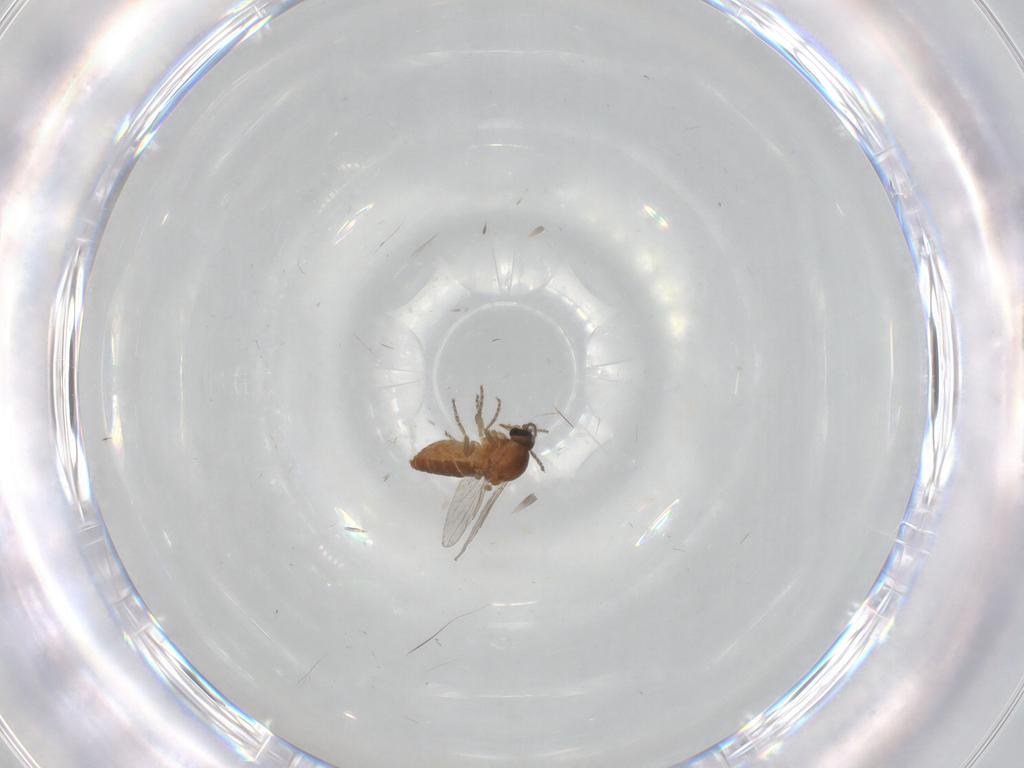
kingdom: Animalia
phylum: Arthropoda
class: Insecta
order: Diptera
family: Ceratopogonidae
